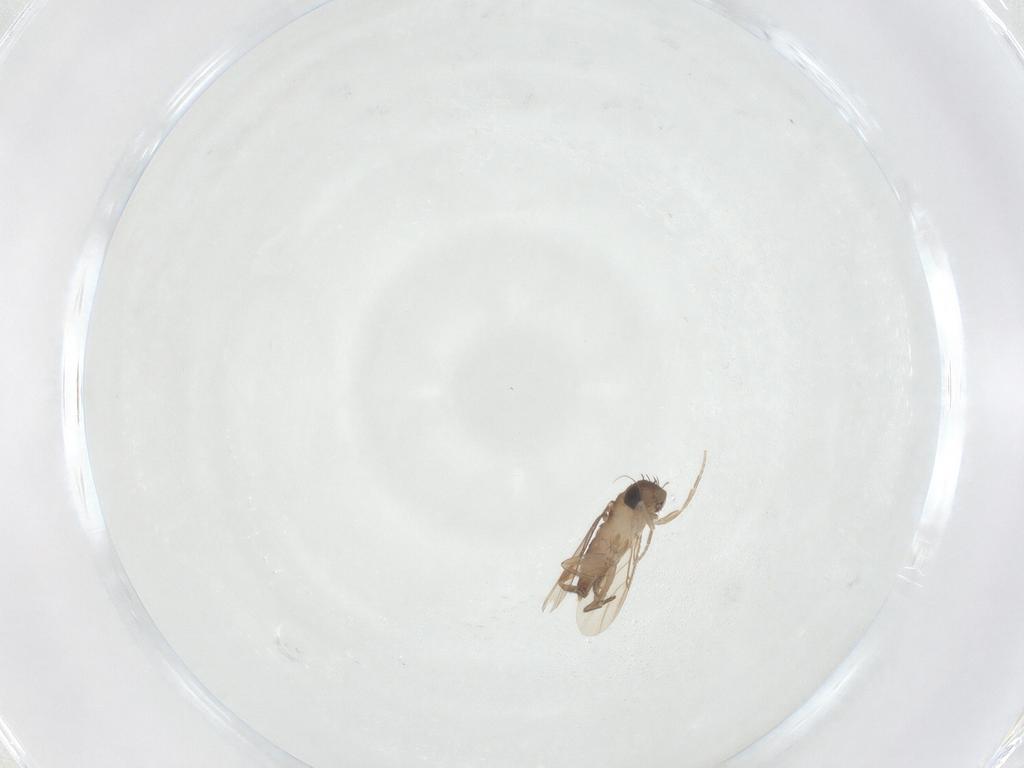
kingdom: Animalia
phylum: Arthropoda
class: Insecta
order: Diptera
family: Phoridae
